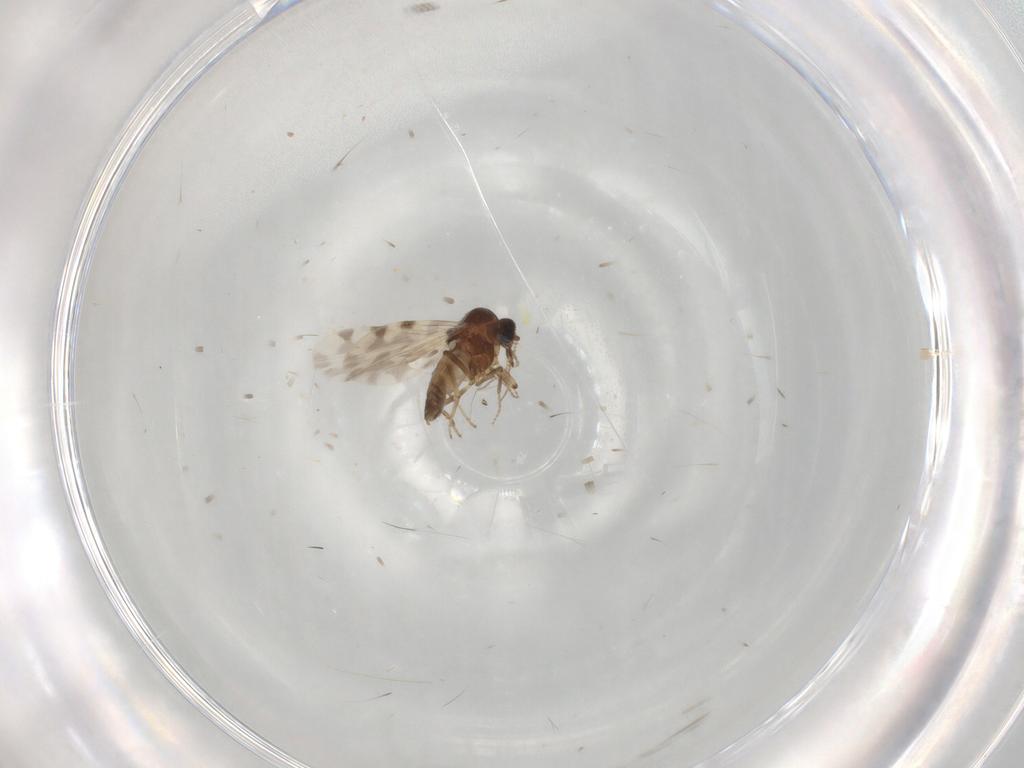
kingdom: Animalia
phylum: Arthropoda
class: Insecta
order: Diptera
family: Ceratopogonidae
